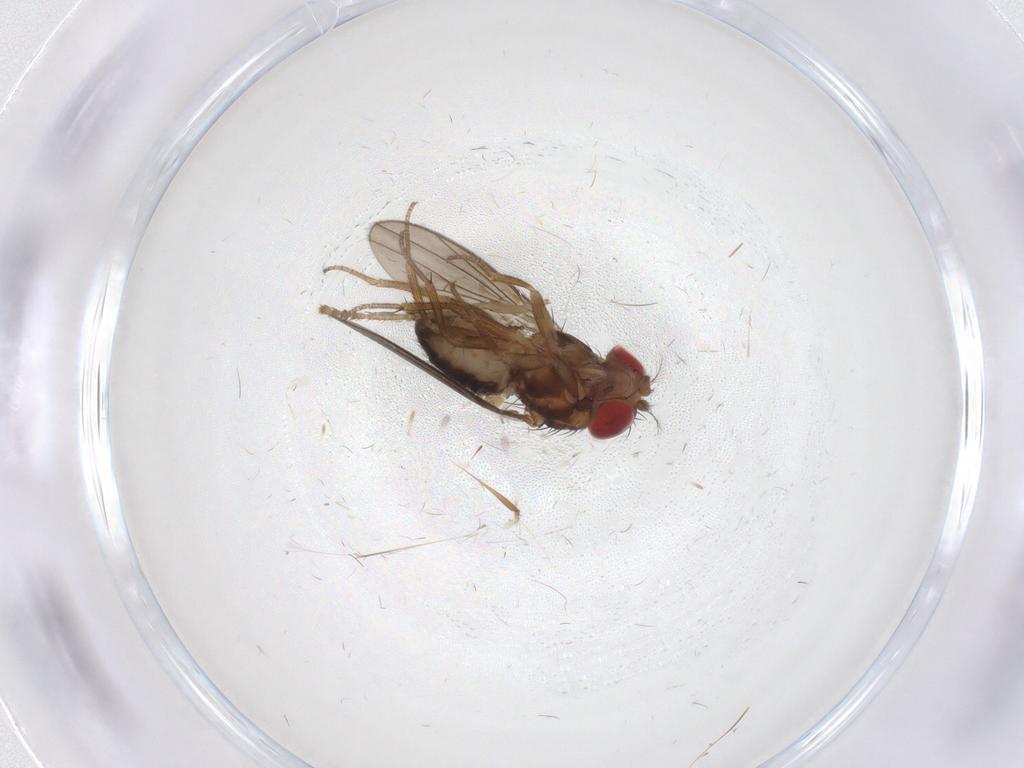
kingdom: Animalia
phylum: Arthropoda
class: Insecta
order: Diptera
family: Drosophilidae
